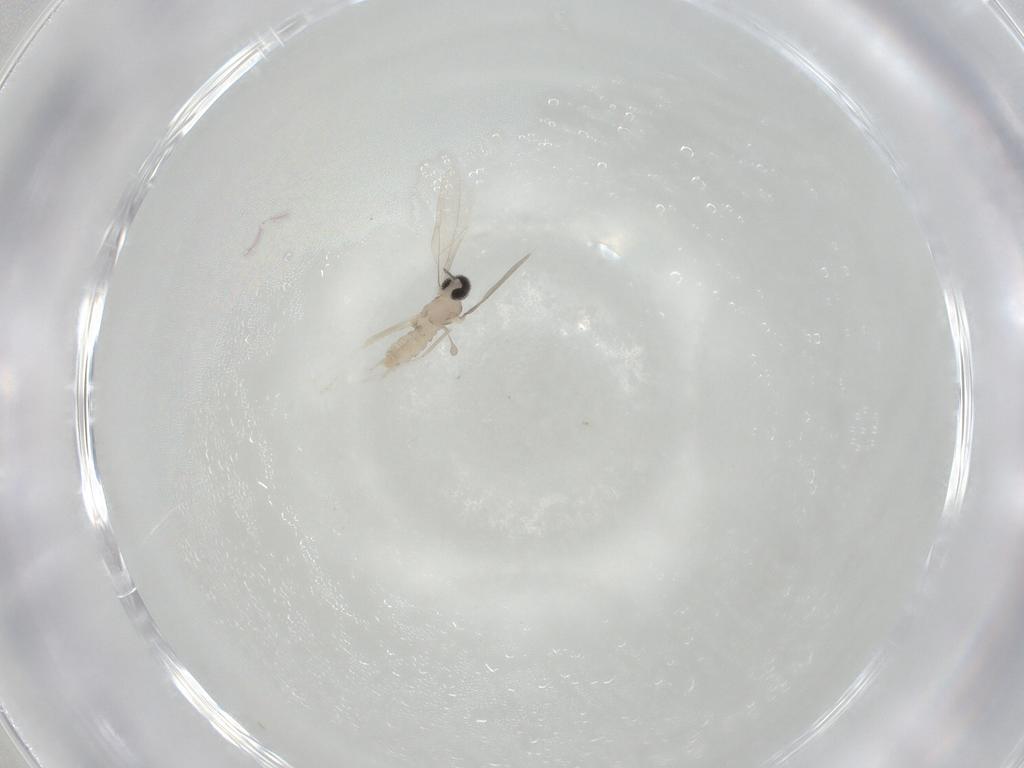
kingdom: Animalia
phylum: Arthropoda
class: Insecta
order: Diptera
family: Cecidomyiidae
